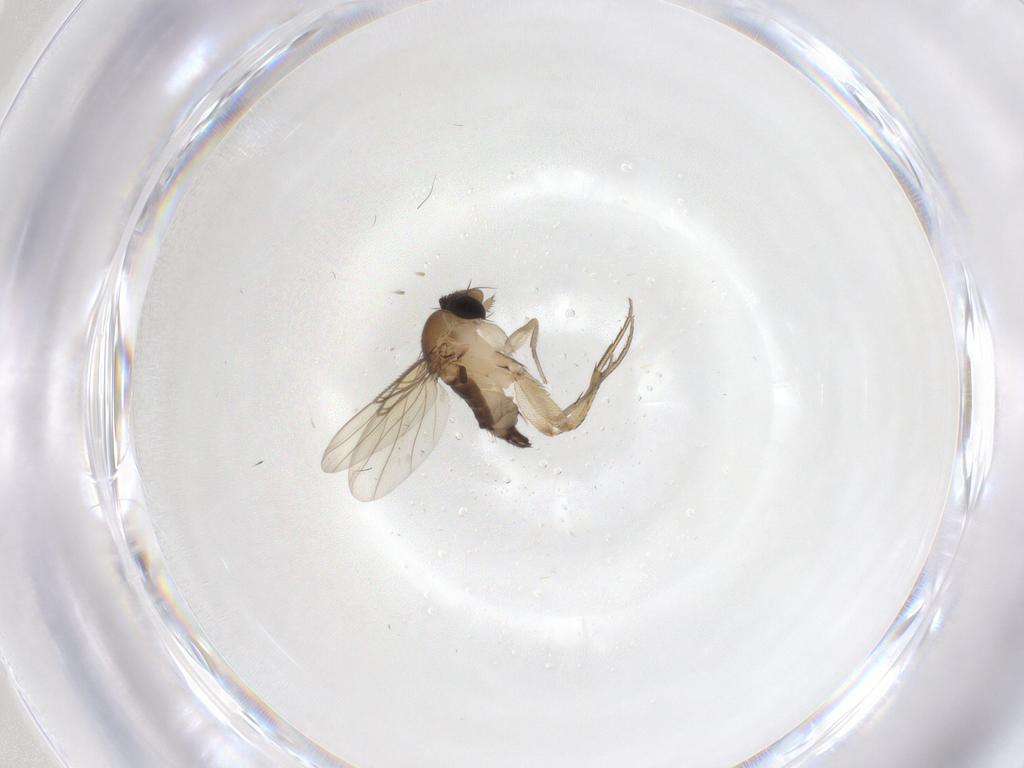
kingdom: Animalia
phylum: Arthropoda
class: Insecta
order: Diptera
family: Phoridae
